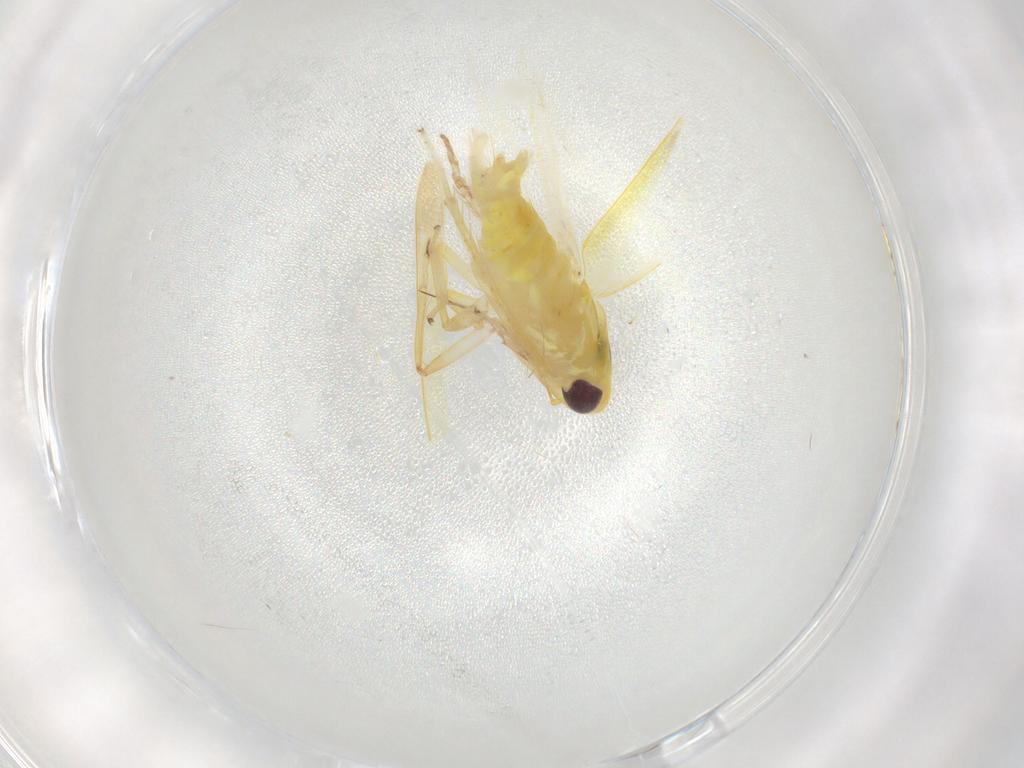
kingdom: Animalia
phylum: Arthropoda
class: Insecta
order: Hemiptera
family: Cicadellidae
